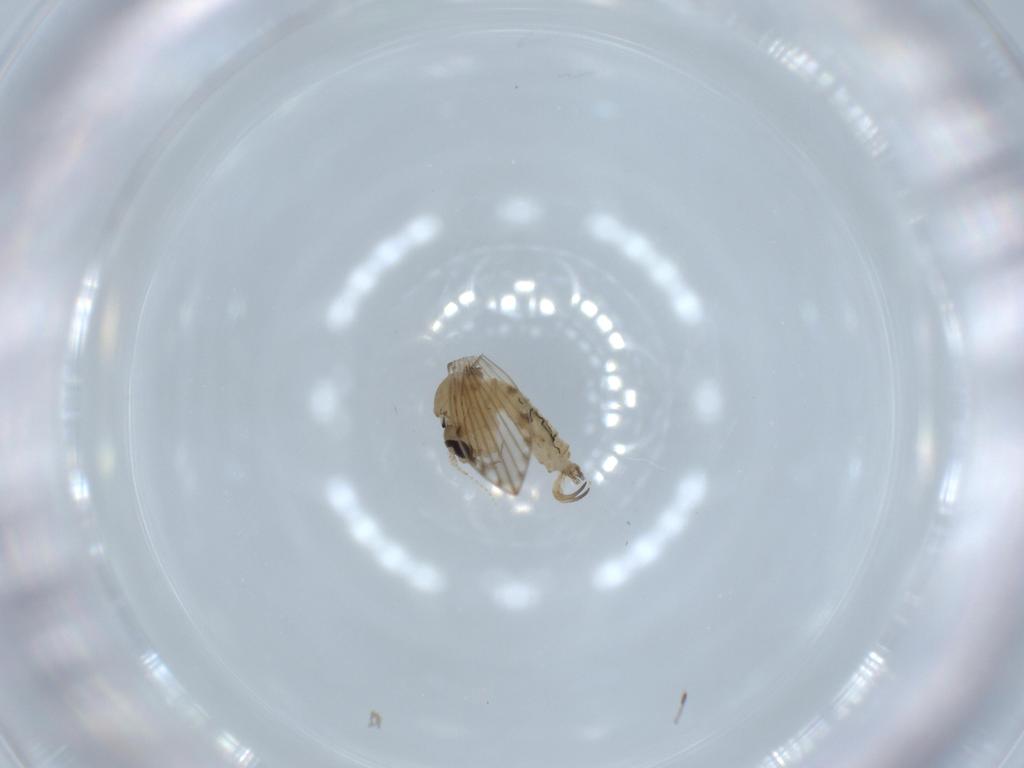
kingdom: Animalia
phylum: Arthropoda
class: Insecta
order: Diptera
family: Psychodidae
